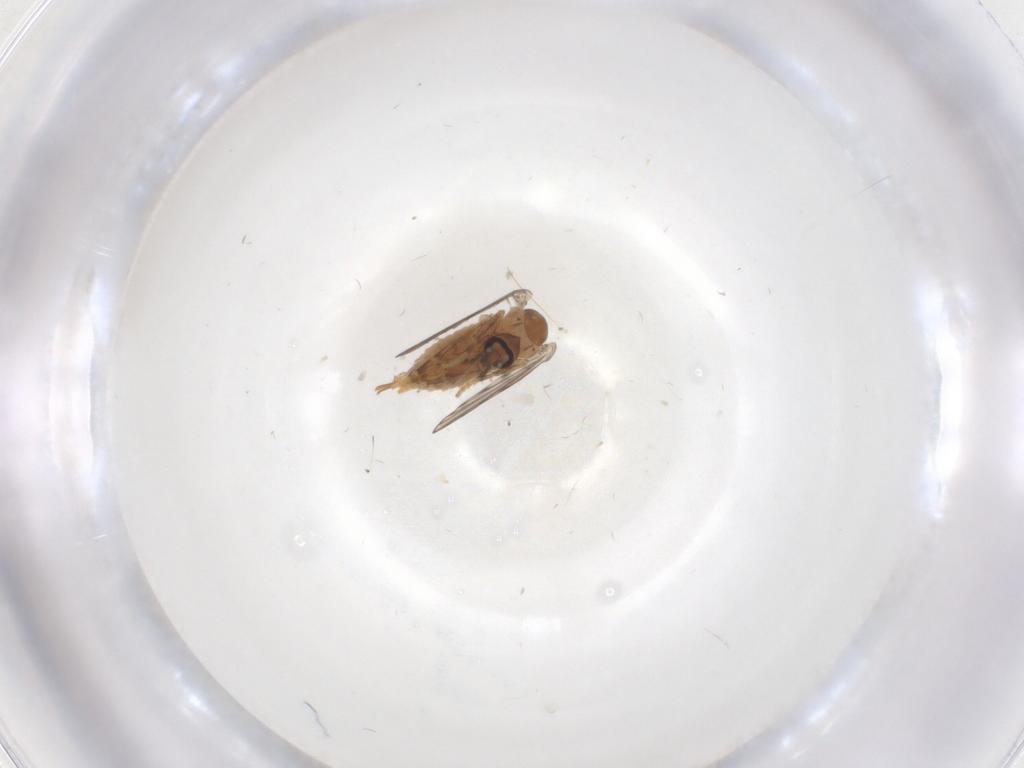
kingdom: Animalia
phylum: Arthropoda
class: Insecta
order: Diptera
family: Psychodidae
